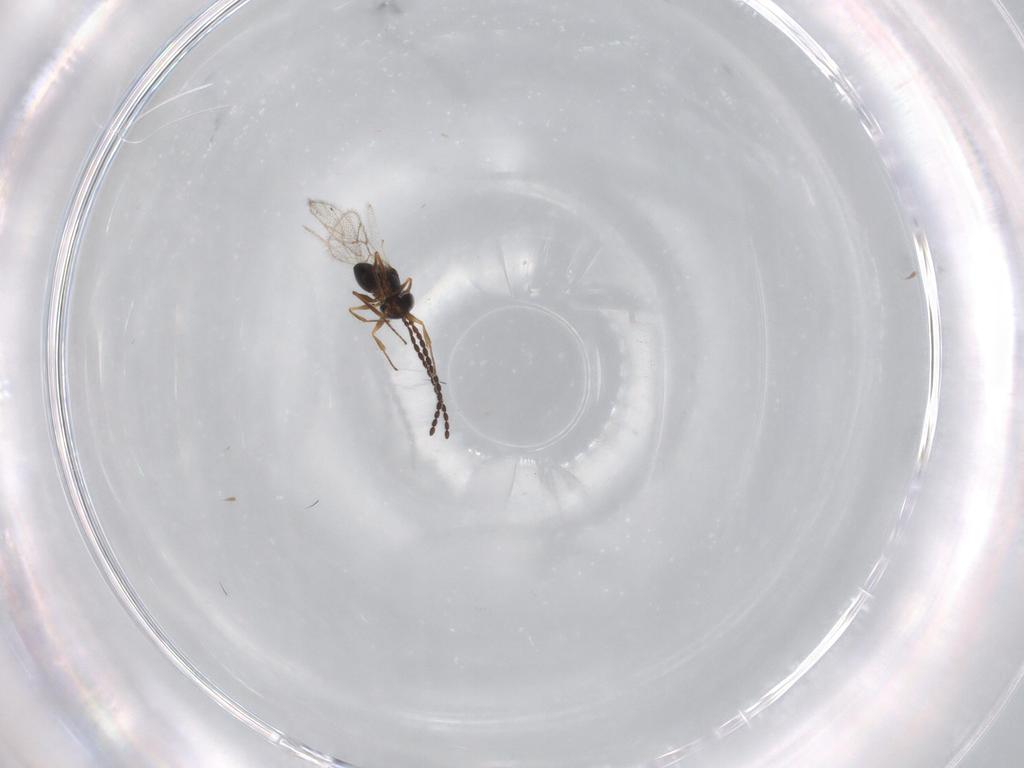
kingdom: Animalia
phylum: Arthropoda
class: Insecta
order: Hymenoptera
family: Figitidae
